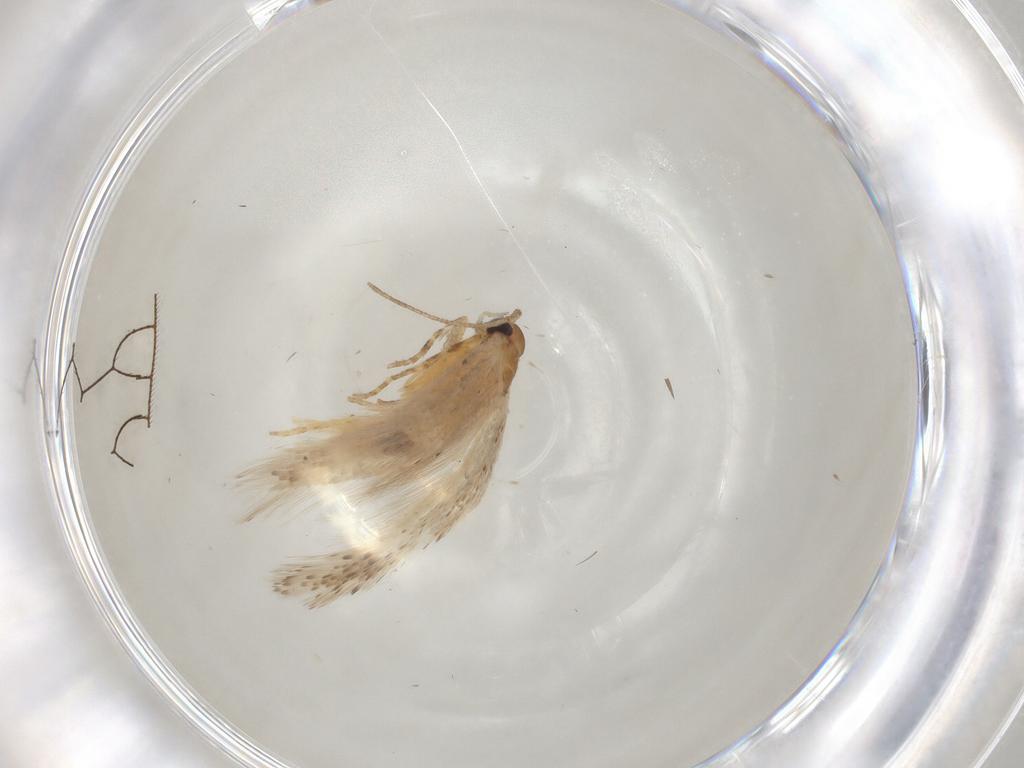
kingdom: Animalia
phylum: Arthropoda
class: Insecta
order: Lepidoptera
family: Gelechiidae
